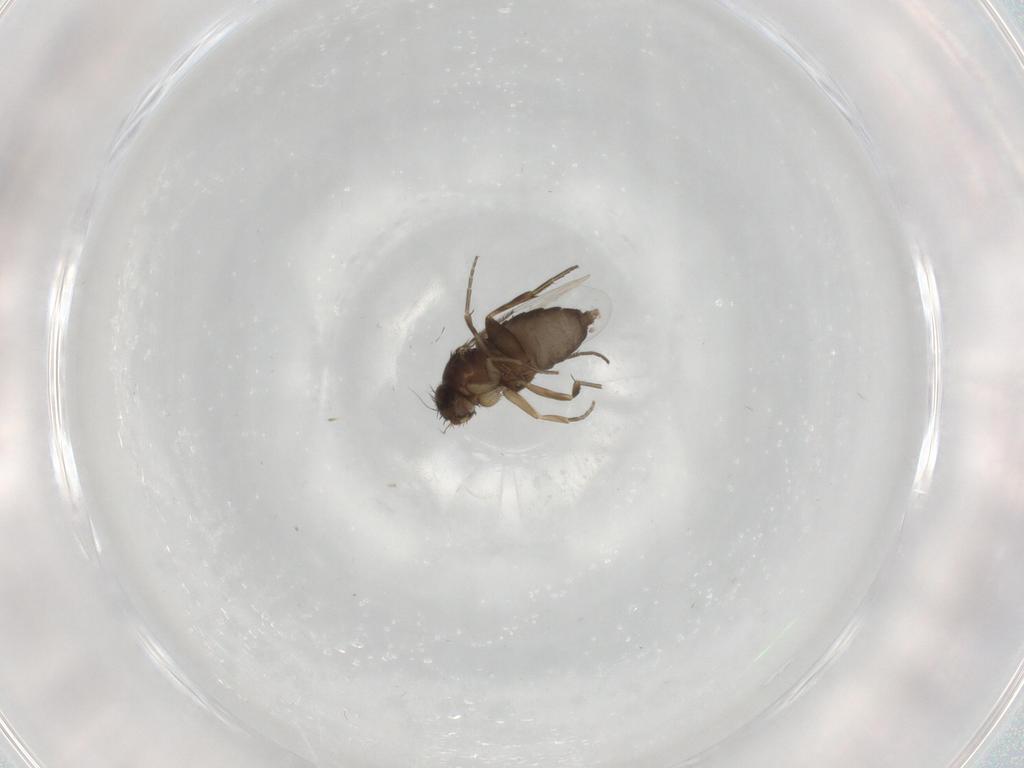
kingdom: Animalia
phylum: Arthropoda
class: Insecta
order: Diptera
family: Phoridae
